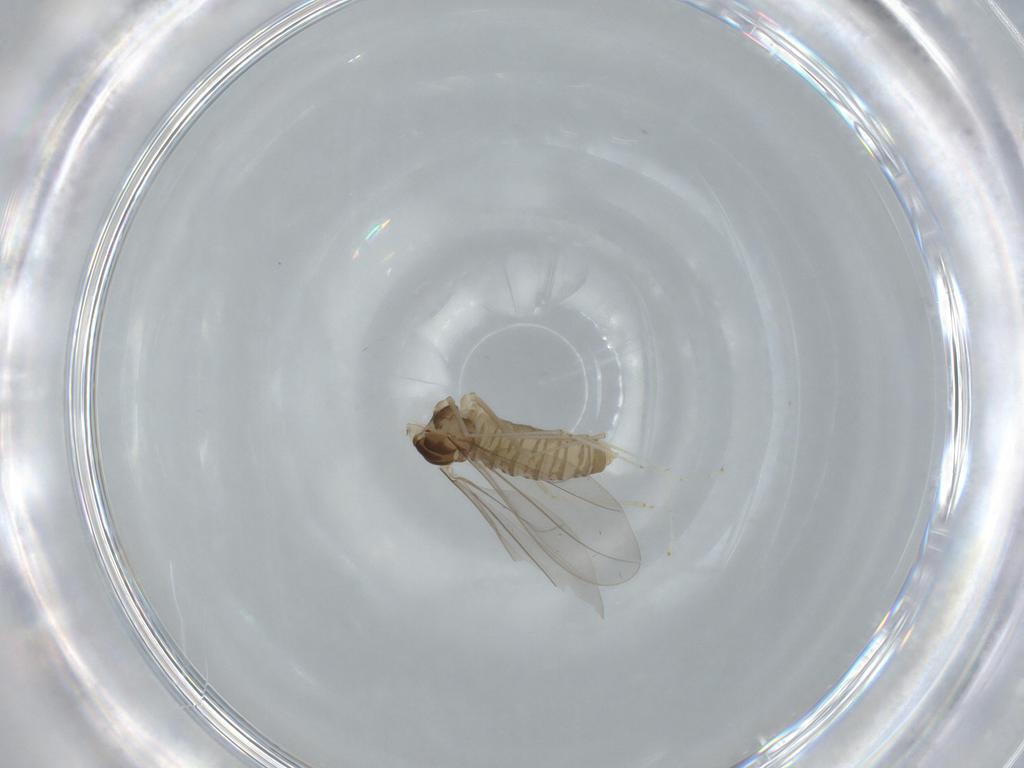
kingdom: Animalia
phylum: Arthropoda
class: Insecta
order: Diptera
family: Cecidomyiidae
